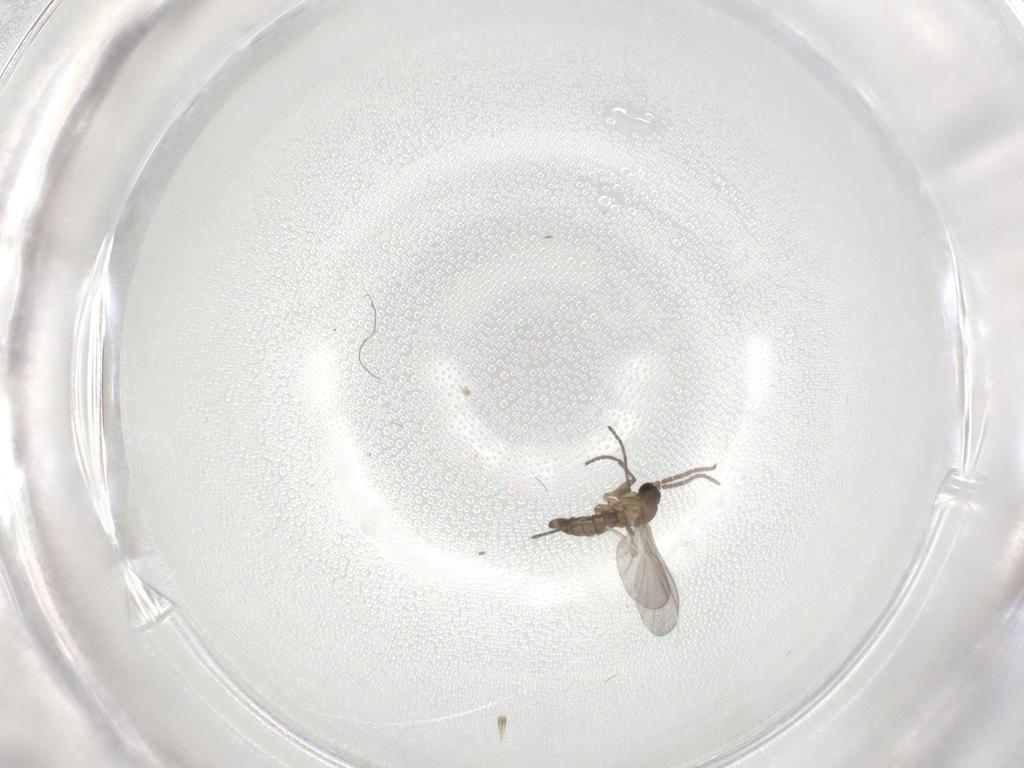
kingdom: Animalia
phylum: Arthropoda
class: Insecta
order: Diptera
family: Sciaridae
